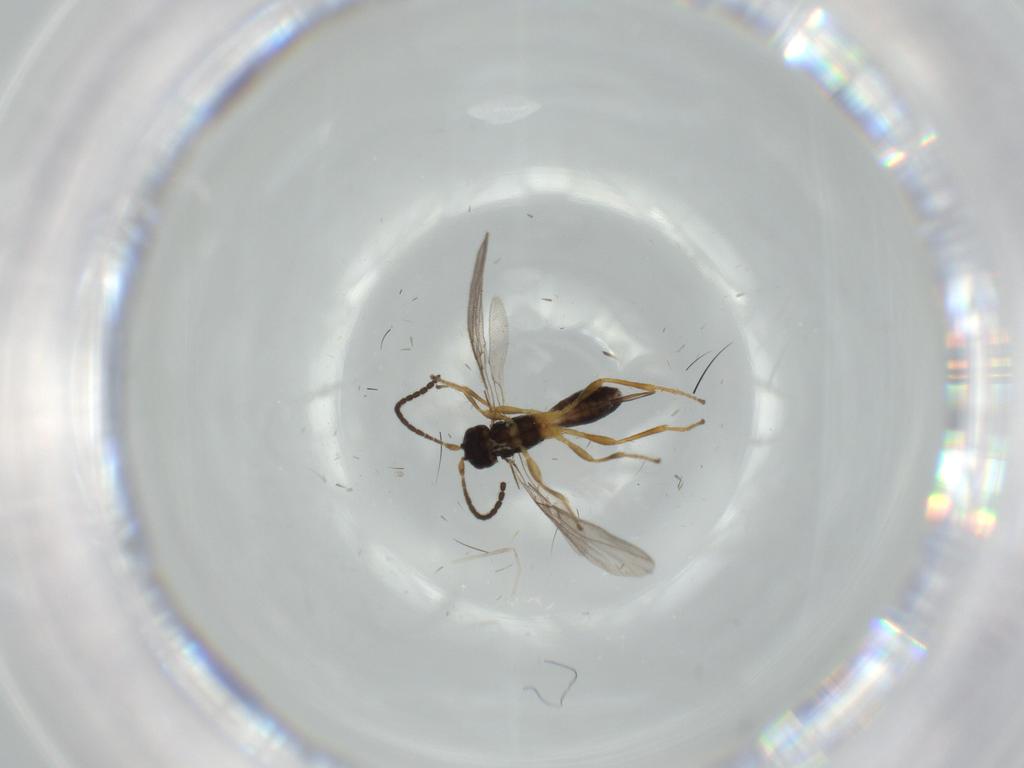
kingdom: Animalia
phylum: Arthropoda
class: Insecta
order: Hymenoptera
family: Braconidae
